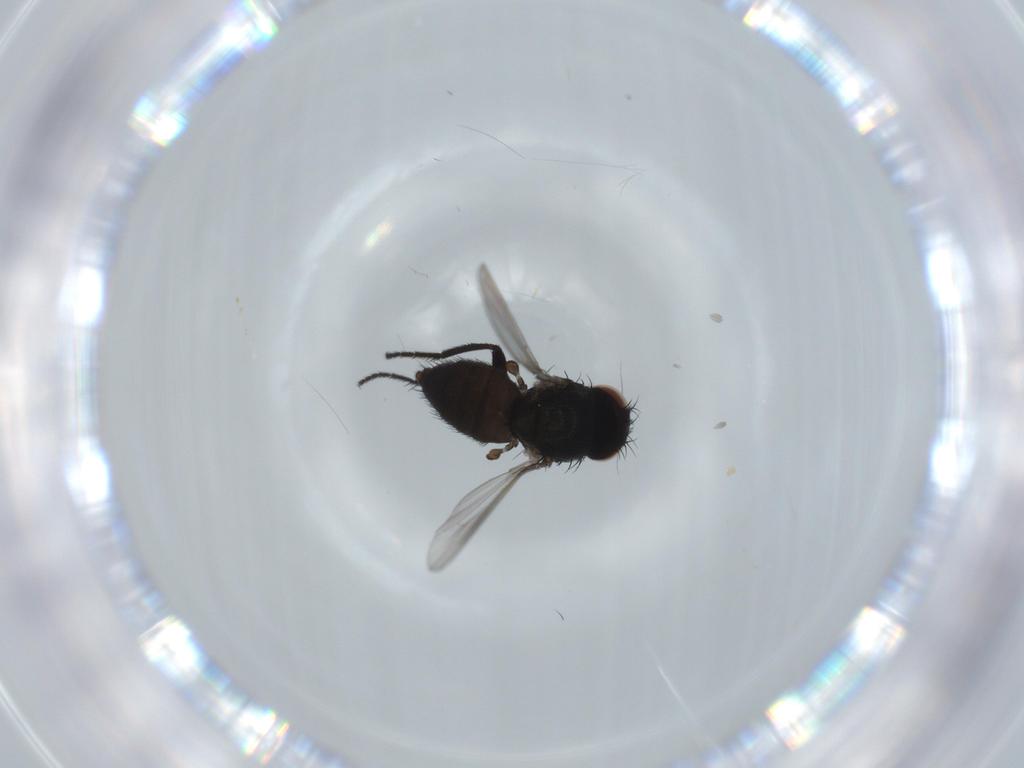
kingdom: Animalia
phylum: Arthropoda
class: Insecta
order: Diptera
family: Milichiidae
